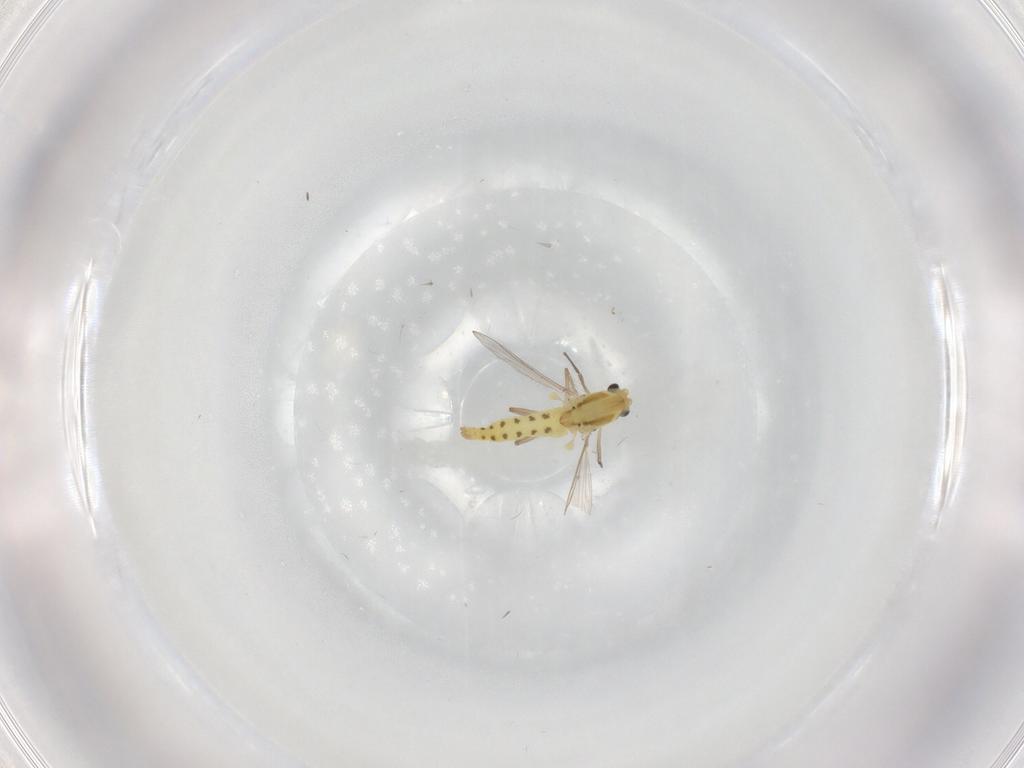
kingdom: Animalia
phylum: Arthropoda
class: Insecta
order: Diptera
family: Chironomidae
